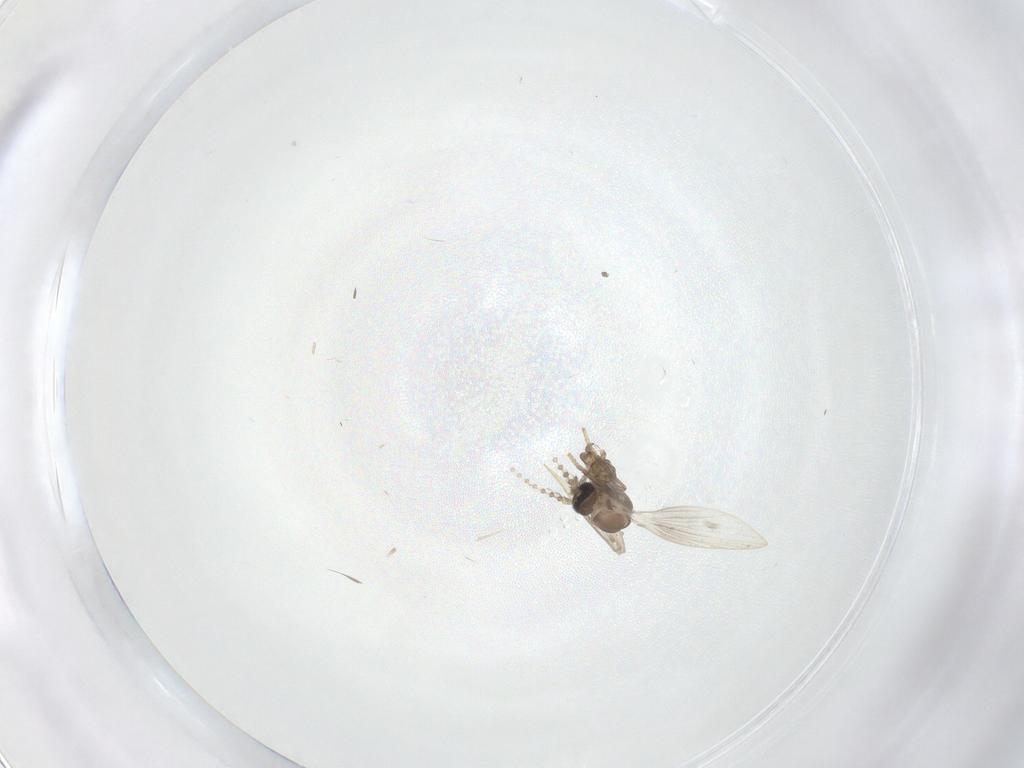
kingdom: Animalia
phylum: Arthropoda
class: Insecta
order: Diptera
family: Psychodidae
